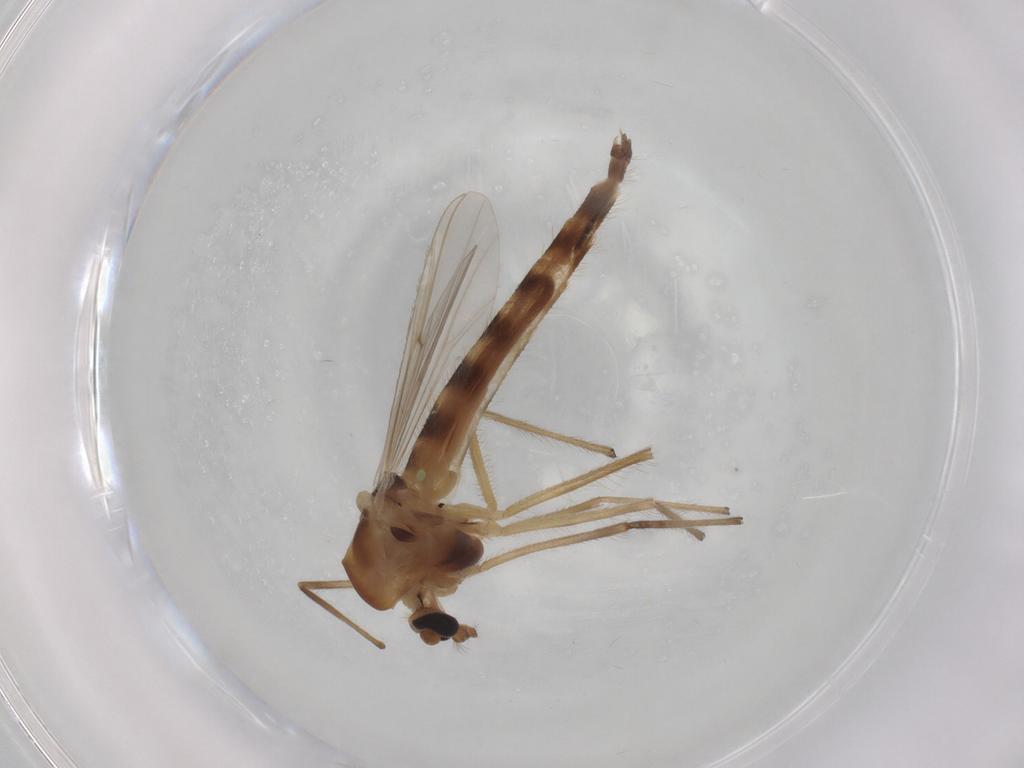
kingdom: Animalia
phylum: Arthropoda
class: Insecta
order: Diptera
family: Chironomidae
